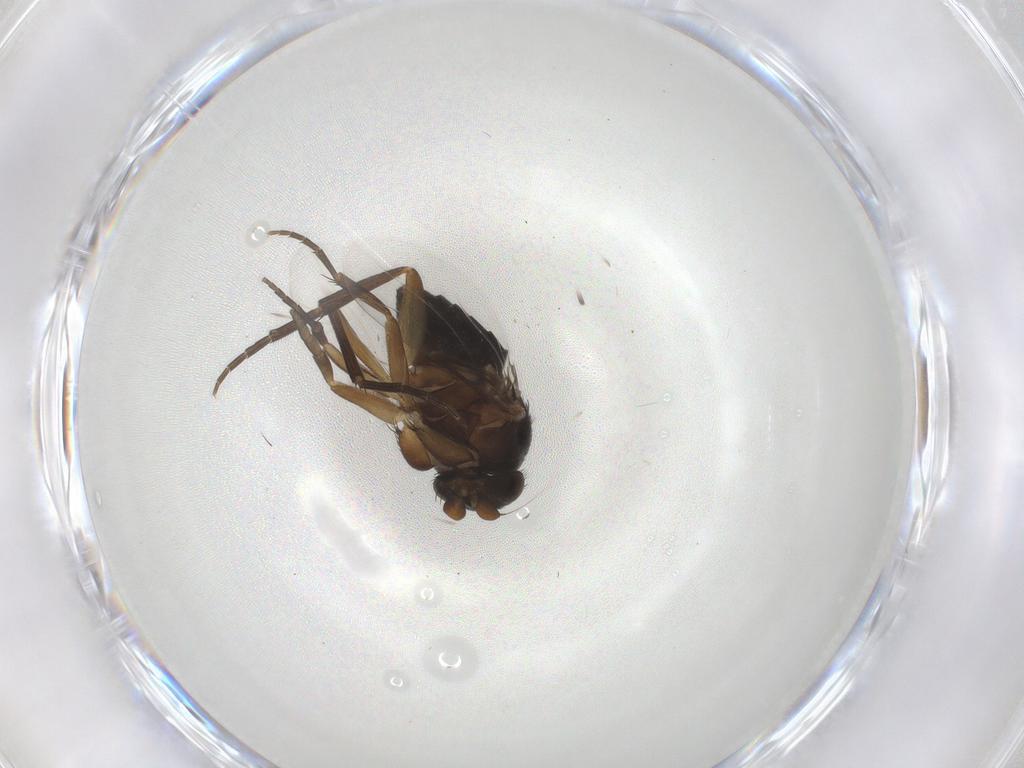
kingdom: Animalia
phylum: Arthropoda
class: Insecta
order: Diptera
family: Phoridae
